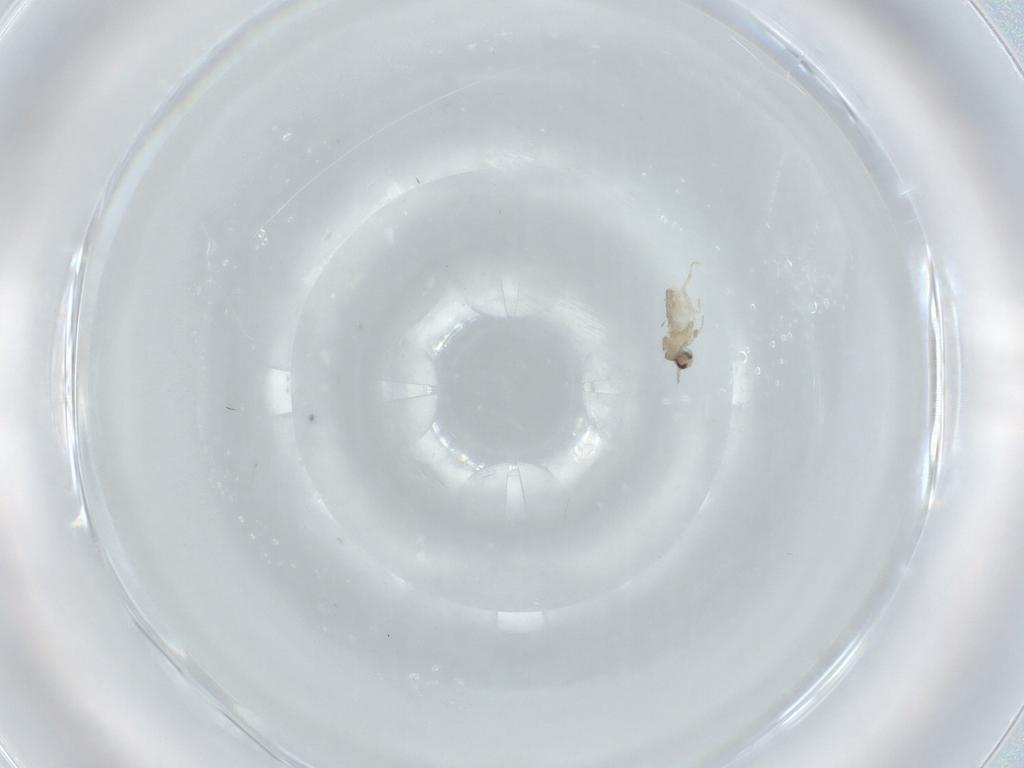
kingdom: Animalia
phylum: Arthropoda
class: Insecta
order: Diptera
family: Cecidomyiidae
